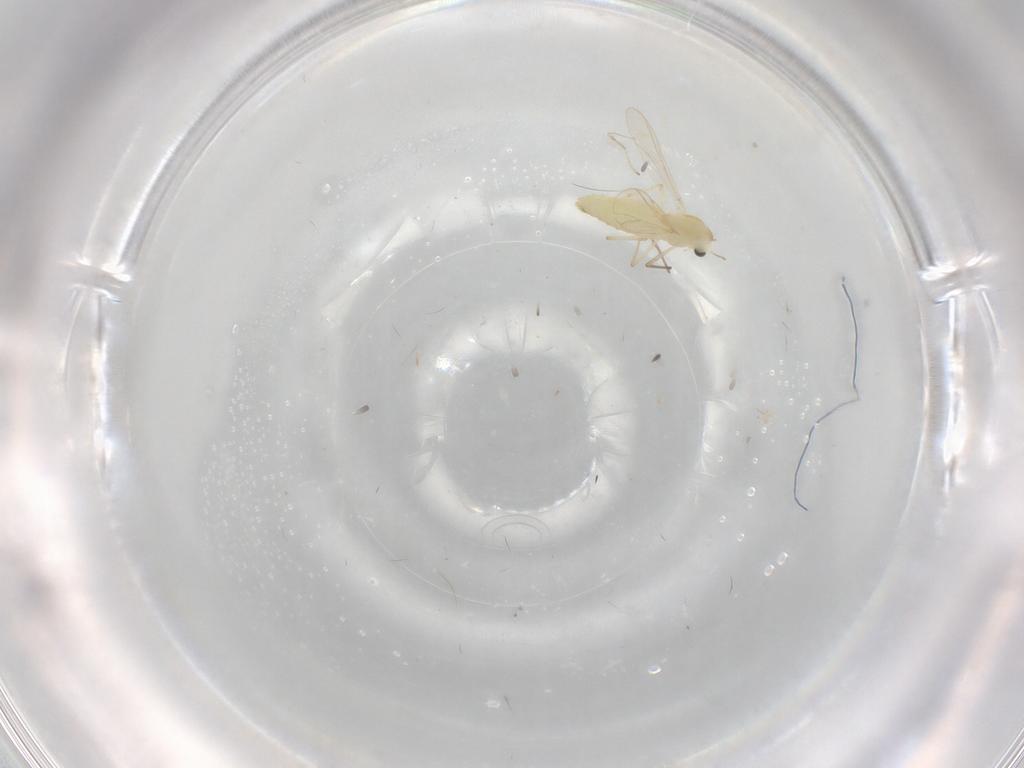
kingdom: Animalia
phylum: Arthropoda
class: Insecta
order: Diptera
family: Chironomidae
